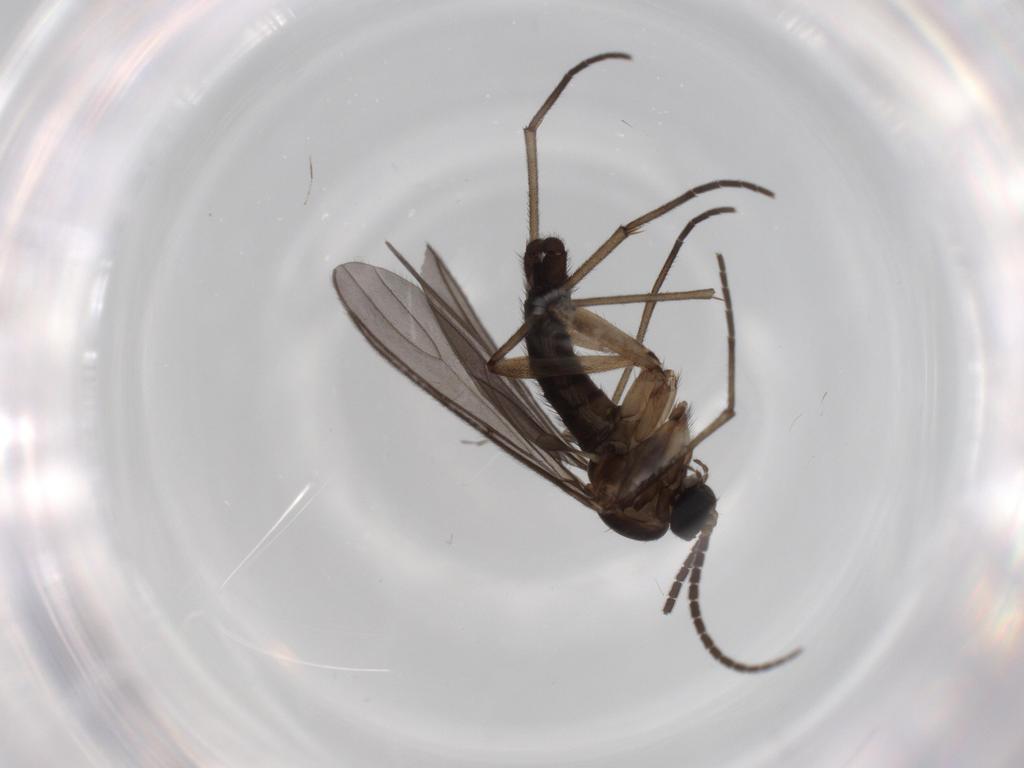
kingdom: Animalia
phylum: Arthropoda
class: Insecta
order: Diptera
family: Sciaridae
